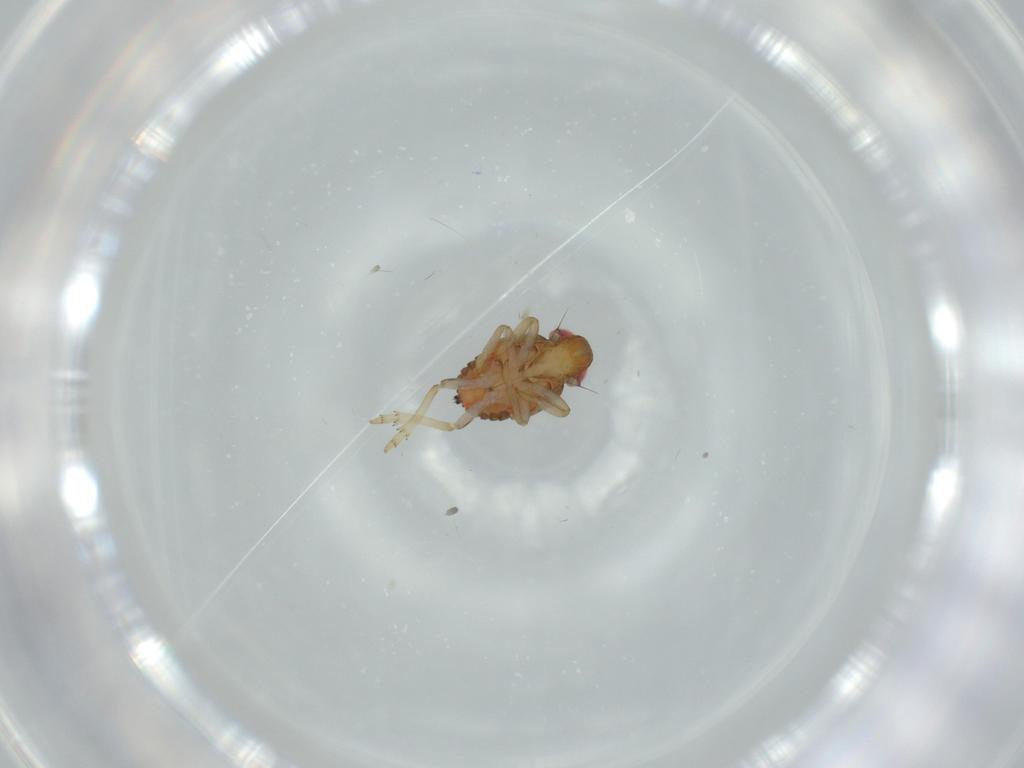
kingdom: Animalia
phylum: Arthropoda
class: Insecta
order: Hemiptera
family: Issidae
